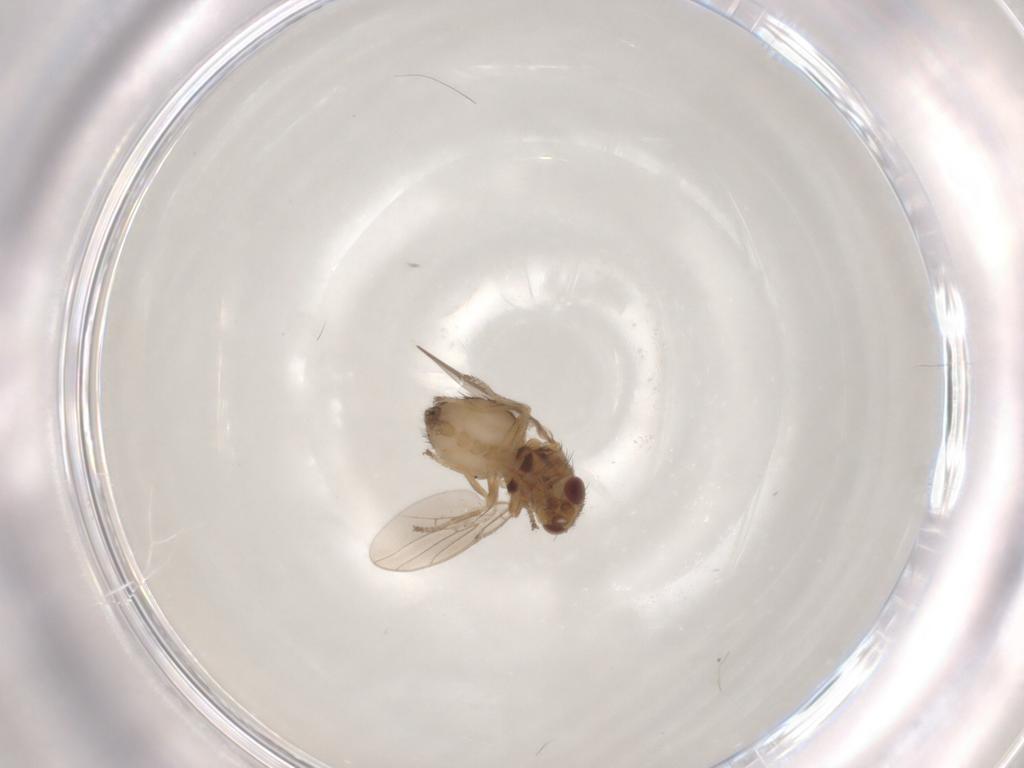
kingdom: Animalia
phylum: Arthropoda
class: Insecta
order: Diptera
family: Chloropidae
